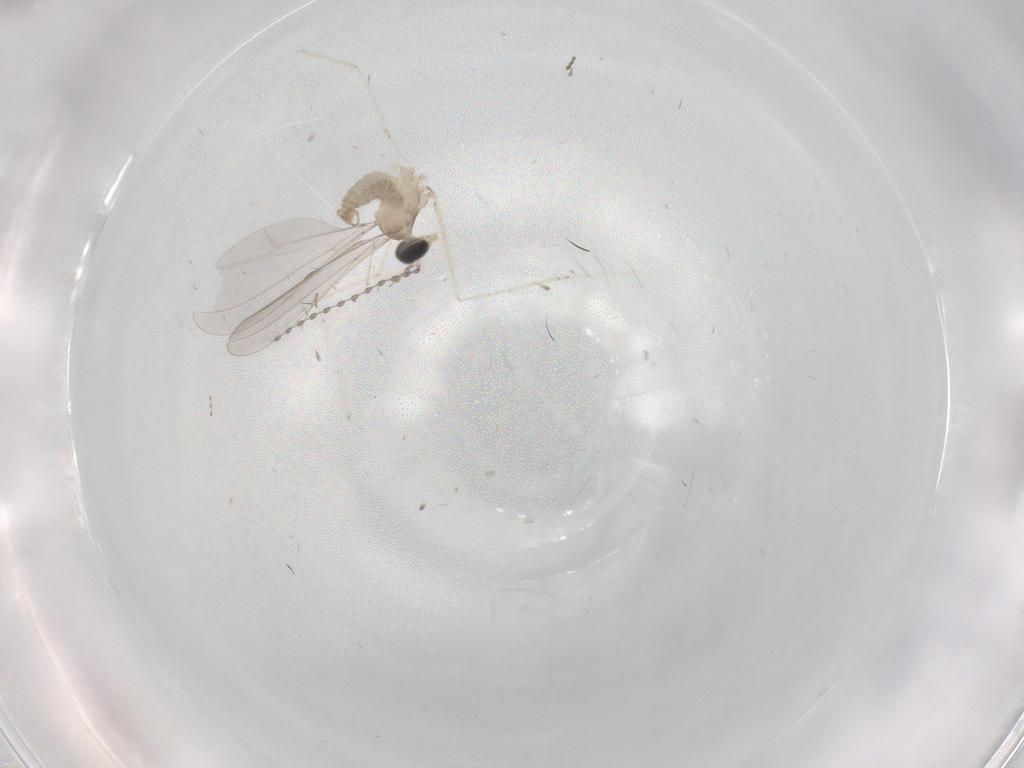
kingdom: Animalia
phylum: Arthropoda
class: Insecta
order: Diptera
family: Cecidomyiidae
